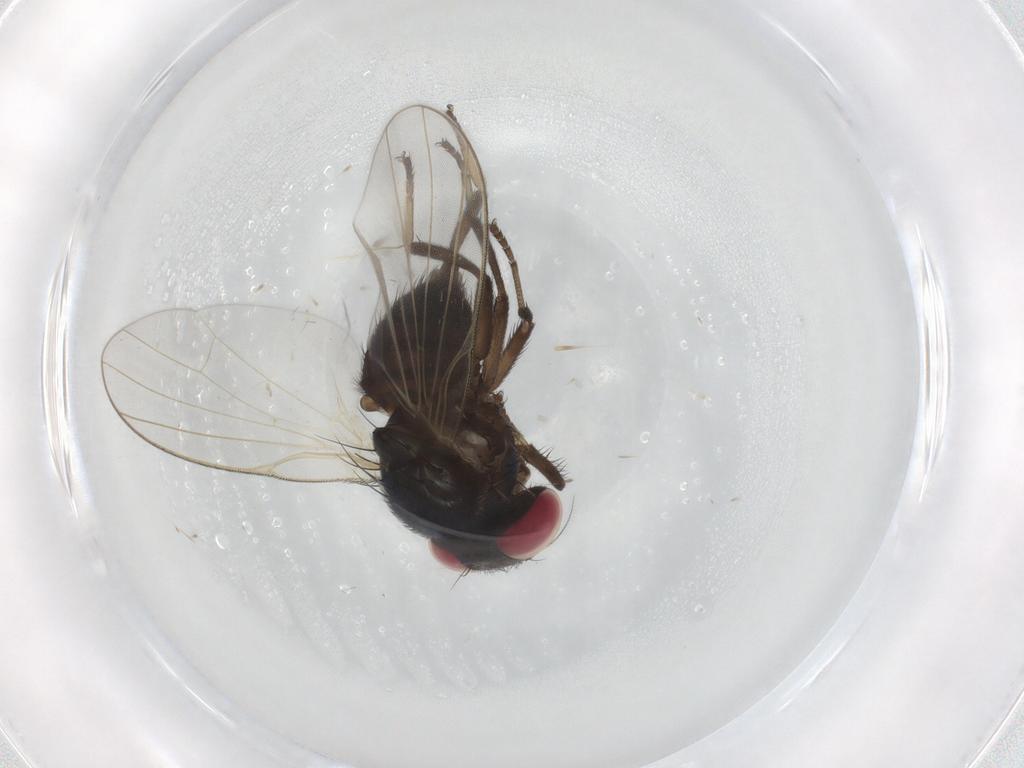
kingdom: Animalia
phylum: Arthropoda
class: Insecta
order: Diptera
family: Lonchaeidae
